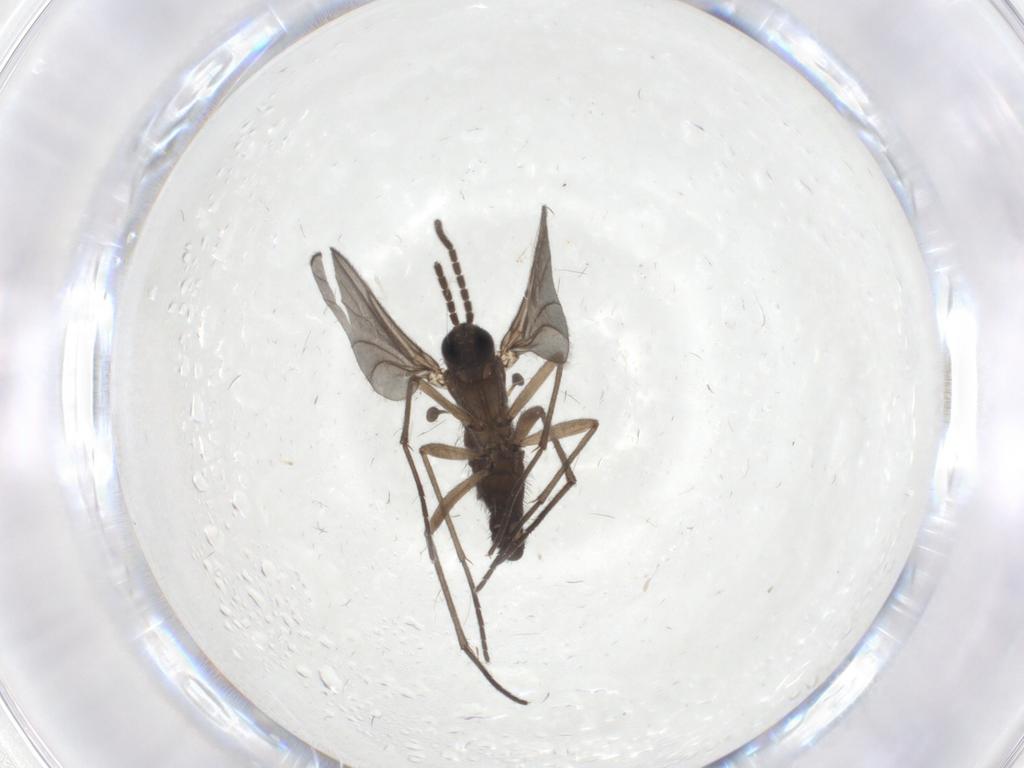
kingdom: Animalia
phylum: Arthropoda
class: Insecta
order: Diptera
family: Sciaridae
